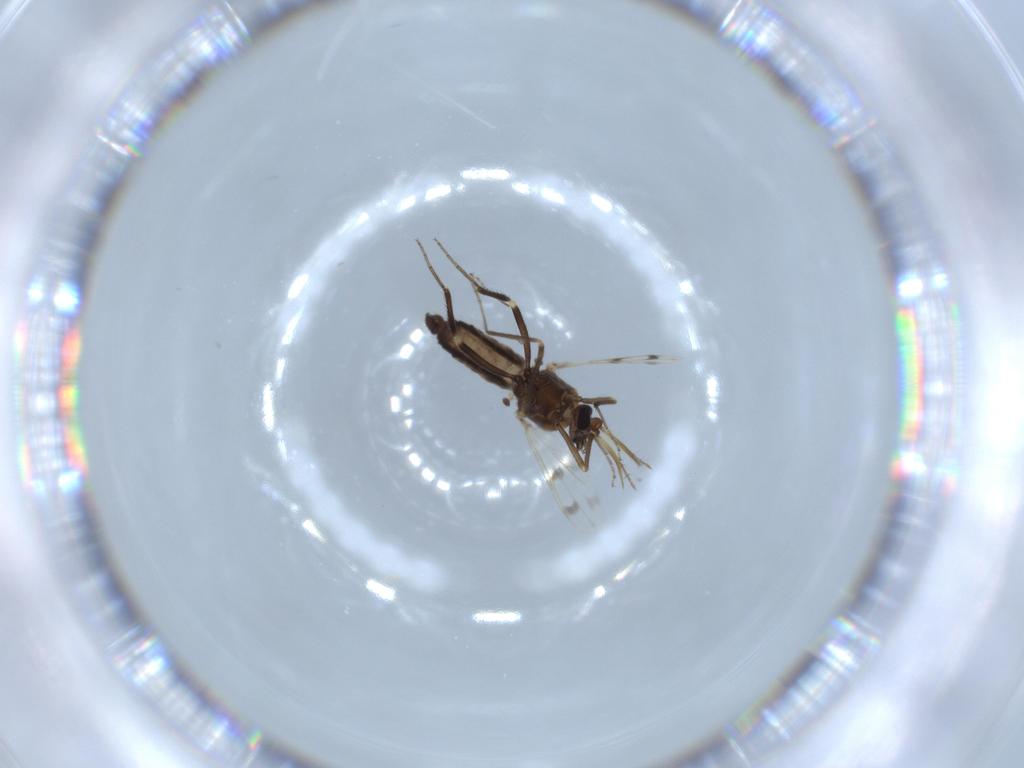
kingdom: Animalia
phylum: Arthropoda
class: Insecta
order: Diptera
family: Ceratopogonidae
